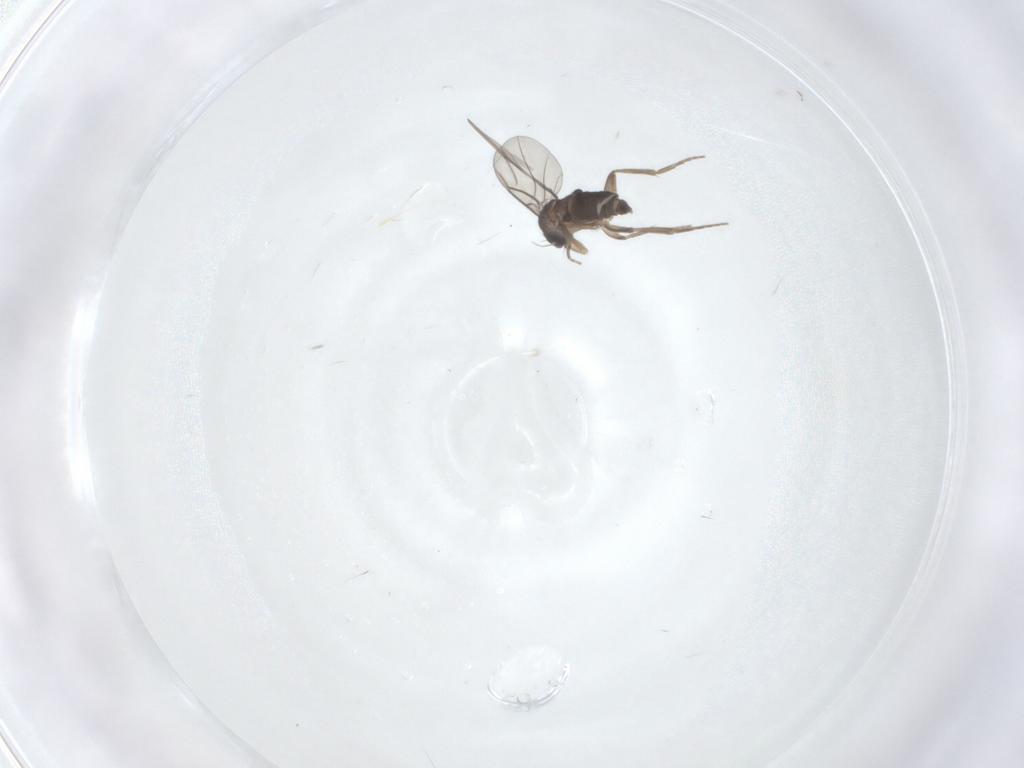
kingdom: Animalia
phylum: Arthropoda
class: Insecta
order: Diptera
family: Phoridae
